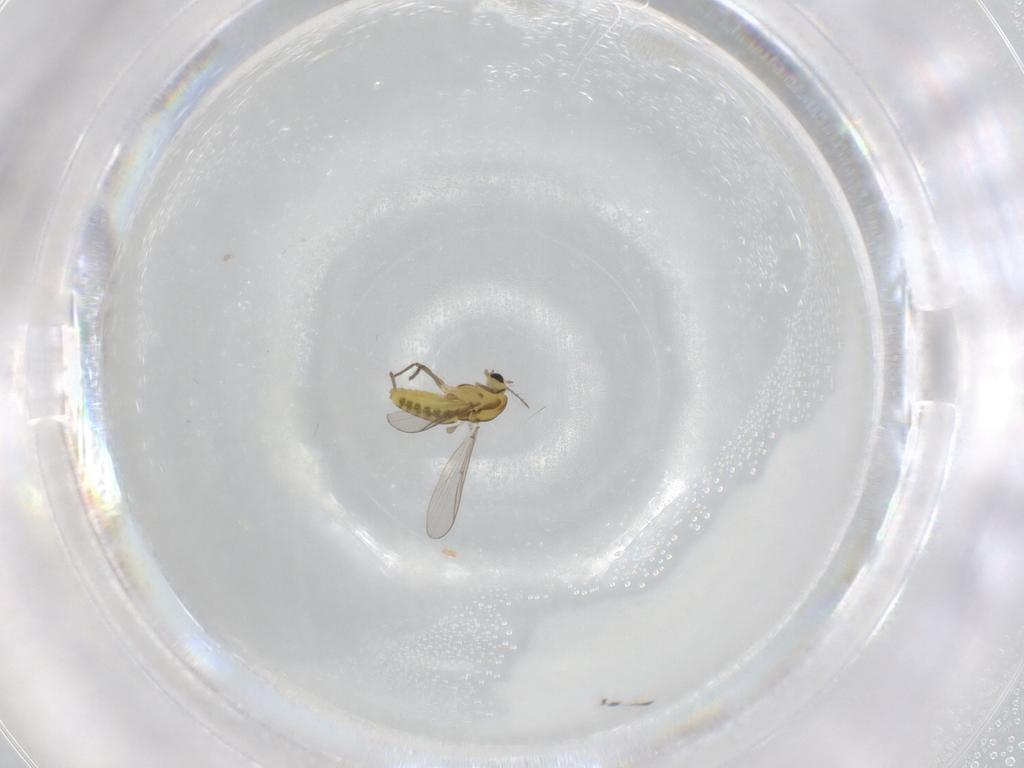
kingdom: Animalia
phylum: Arthropoda
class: Insecta
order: Diptera
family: Chironomidae
